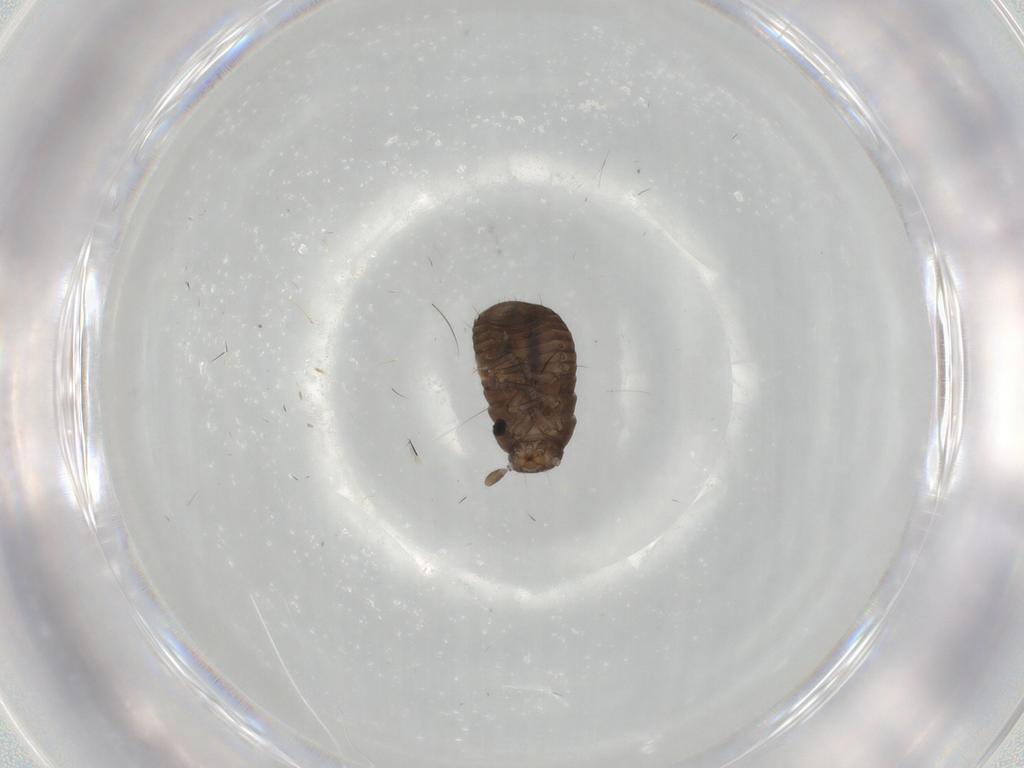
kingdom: Animalia
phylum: Arthropoda
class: Insecta
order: Coleoptera
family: Tenebrionidae
